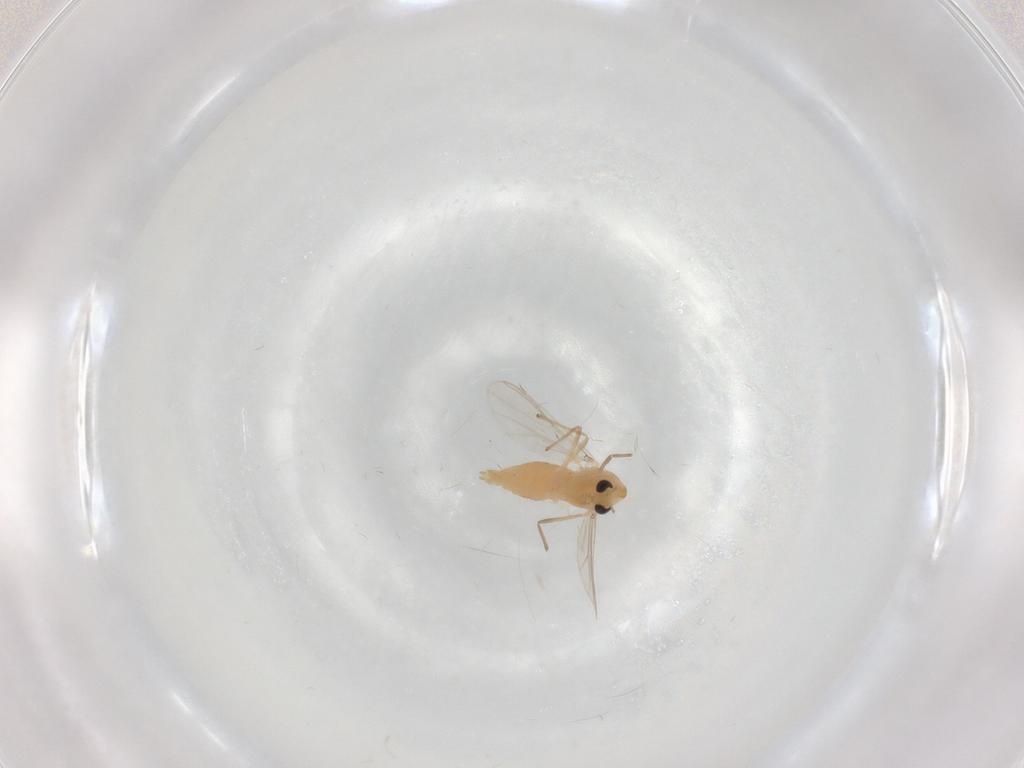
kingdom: Animalia
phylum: Arthropoda
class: Insecta
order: Diptera
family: Chironomidae
